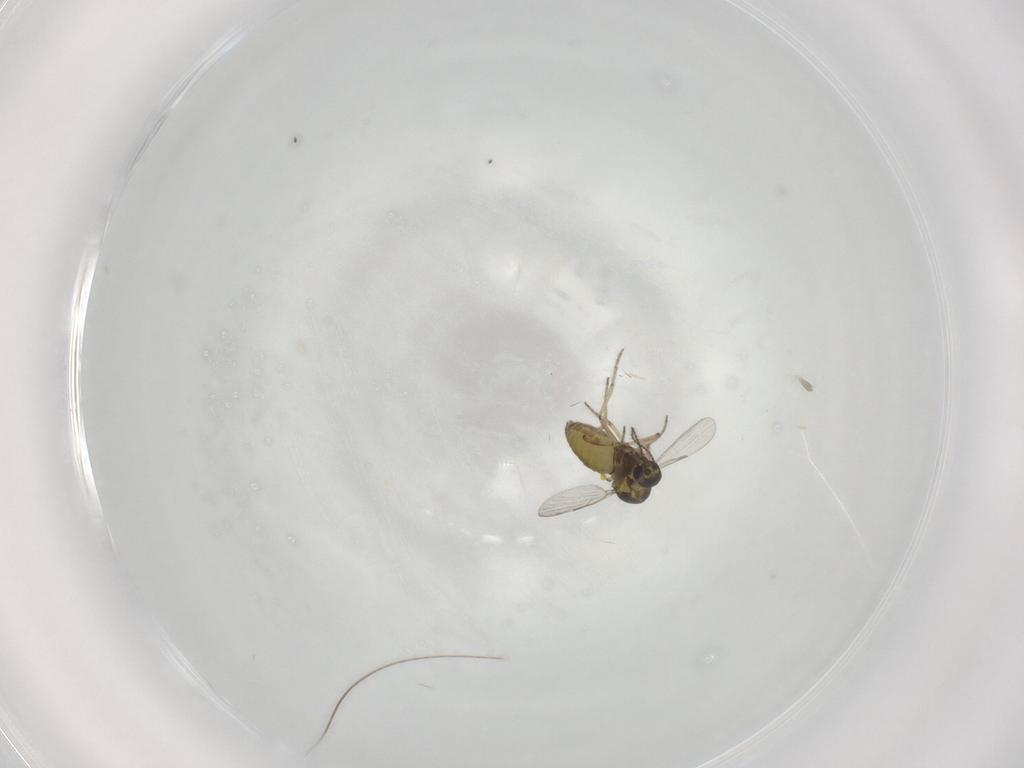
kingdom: Animalia
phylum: Arthropoda
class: Insecta
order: Diptera
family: Ceratopogonidae
